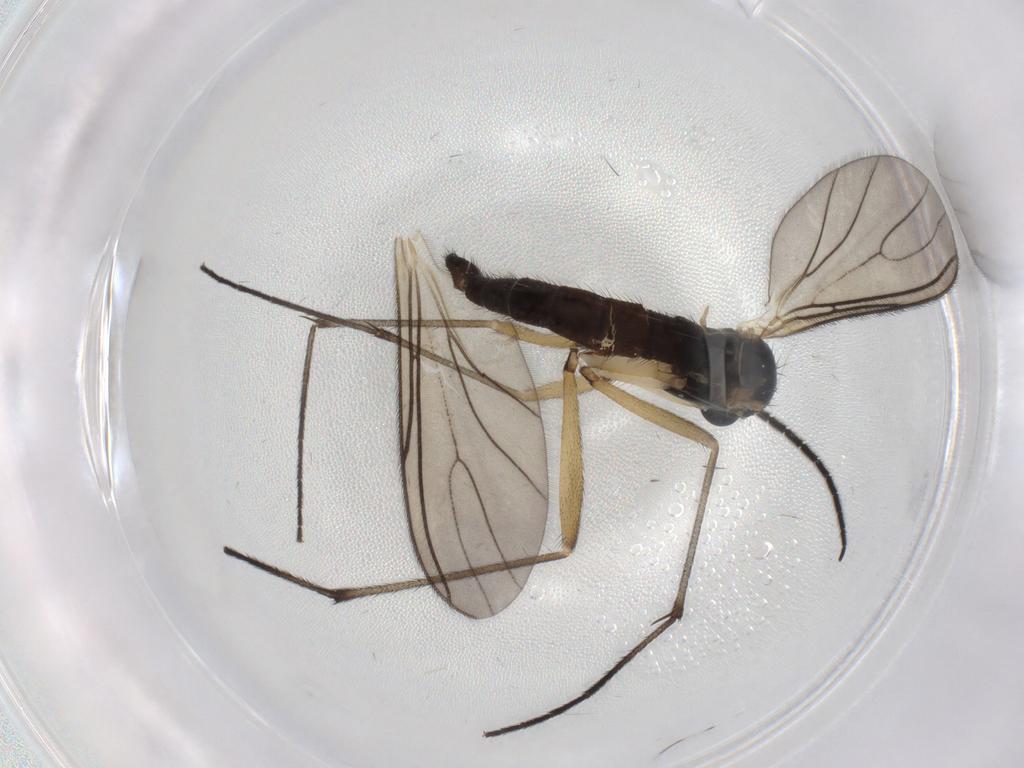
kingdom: Animalia
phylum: Arthropoda
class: Insecta
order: Diptera
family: Sciaridae
